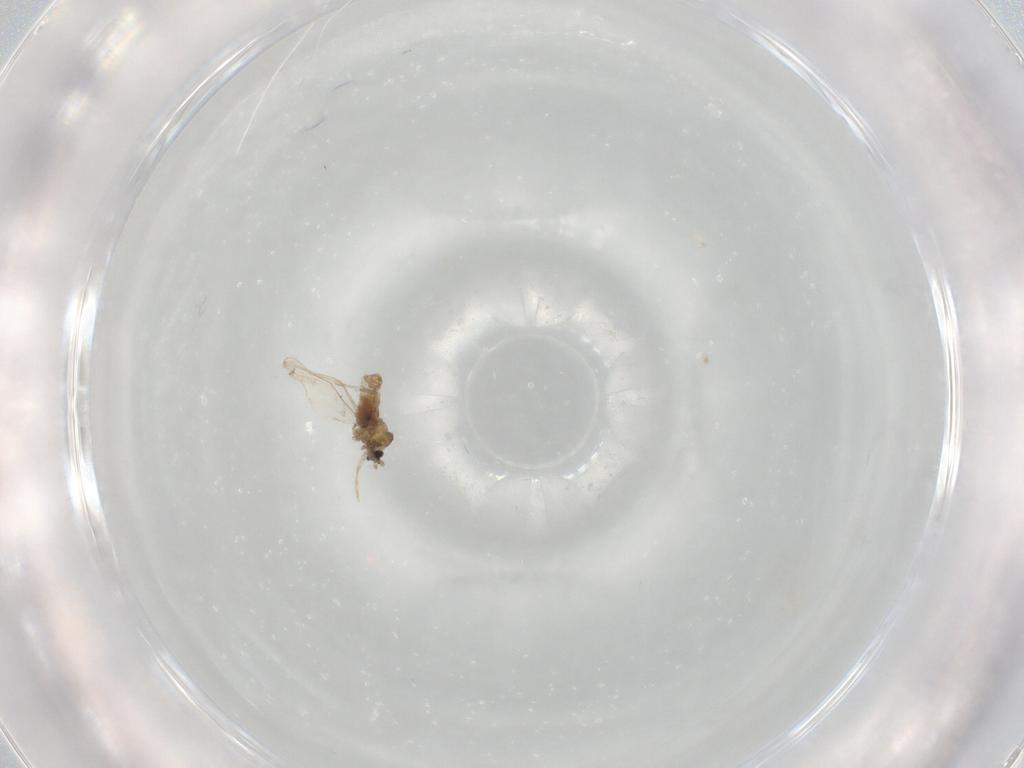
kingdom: Animalia
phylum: Arthropoda
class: Insecta
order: Diptera
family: Cecidomyiidae
